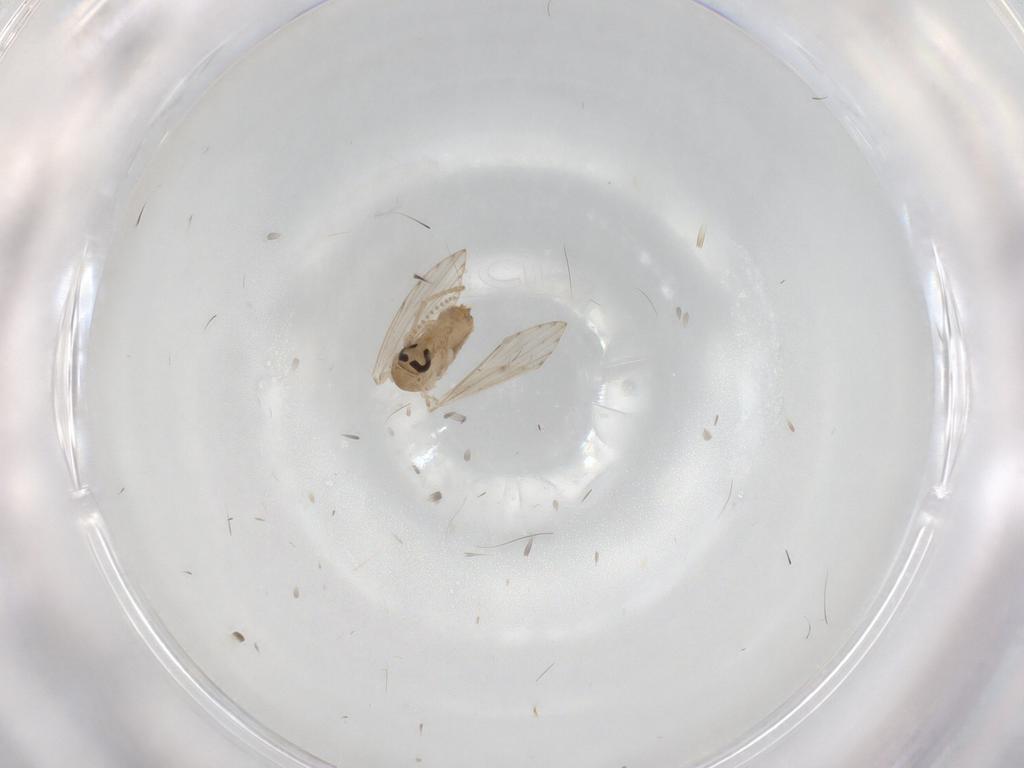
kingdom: Animalia
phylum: Arthropoda
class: Insecta
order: Diptera
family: Psychodidae
